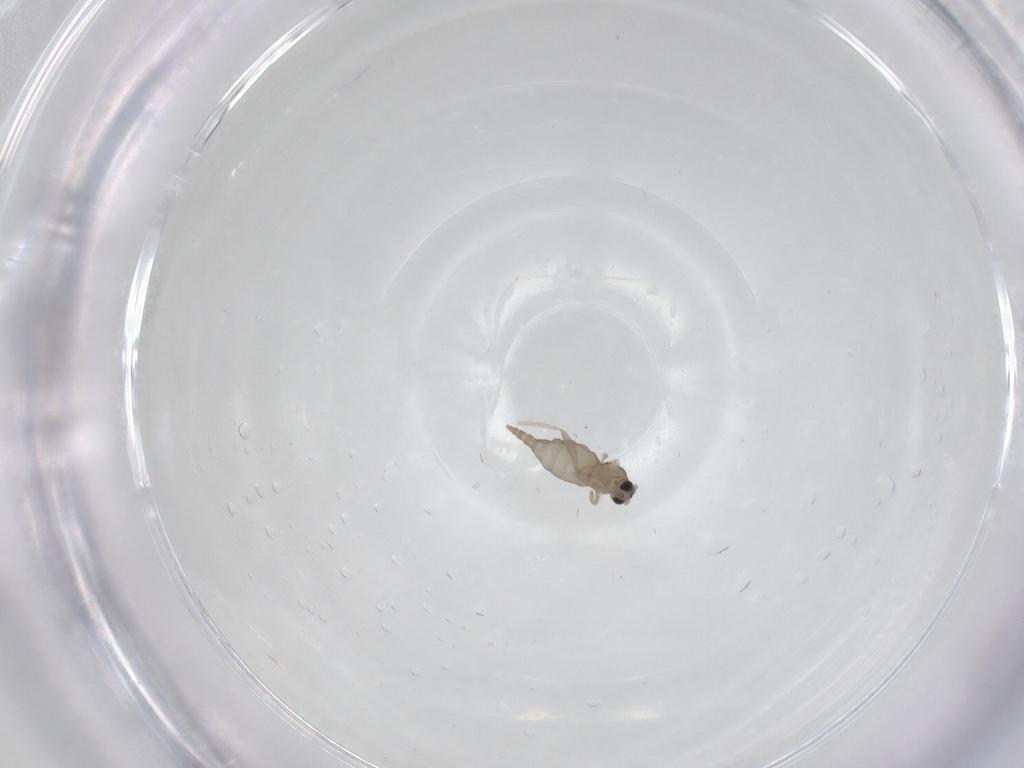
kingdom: Animalia
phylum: Arthropoda
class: Insecta
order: Diptera
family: Cecidomyiidae
